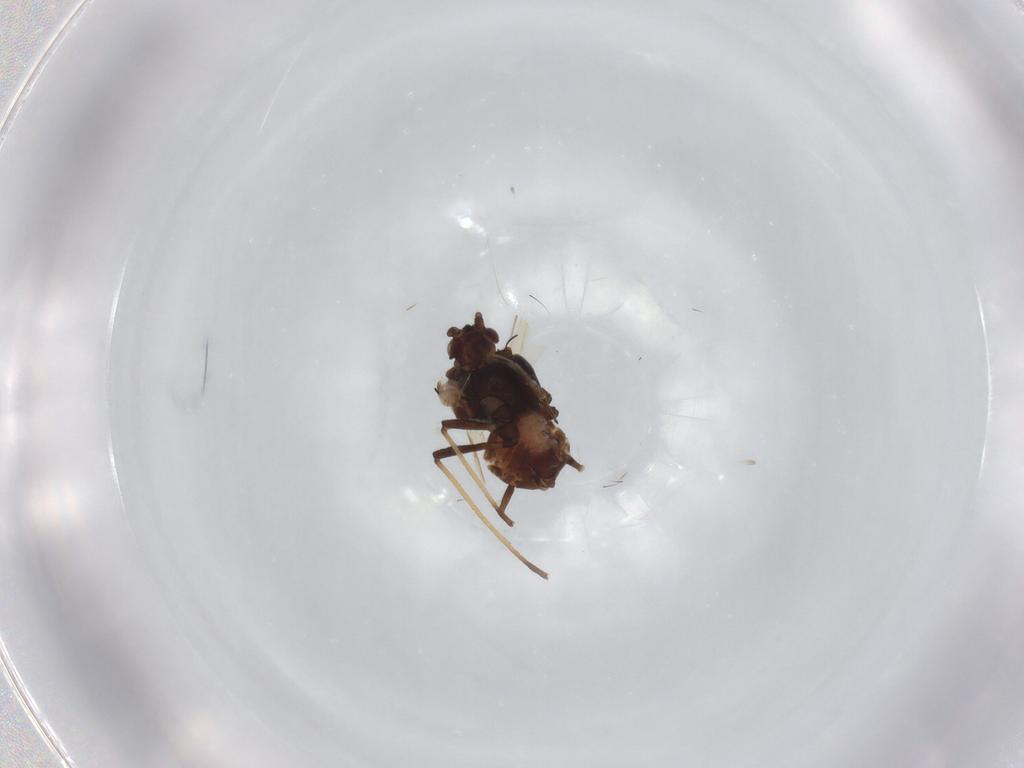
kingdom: Animalia
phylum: Arthropoda
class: Insecta
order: Hemiptera
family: Aphididae
